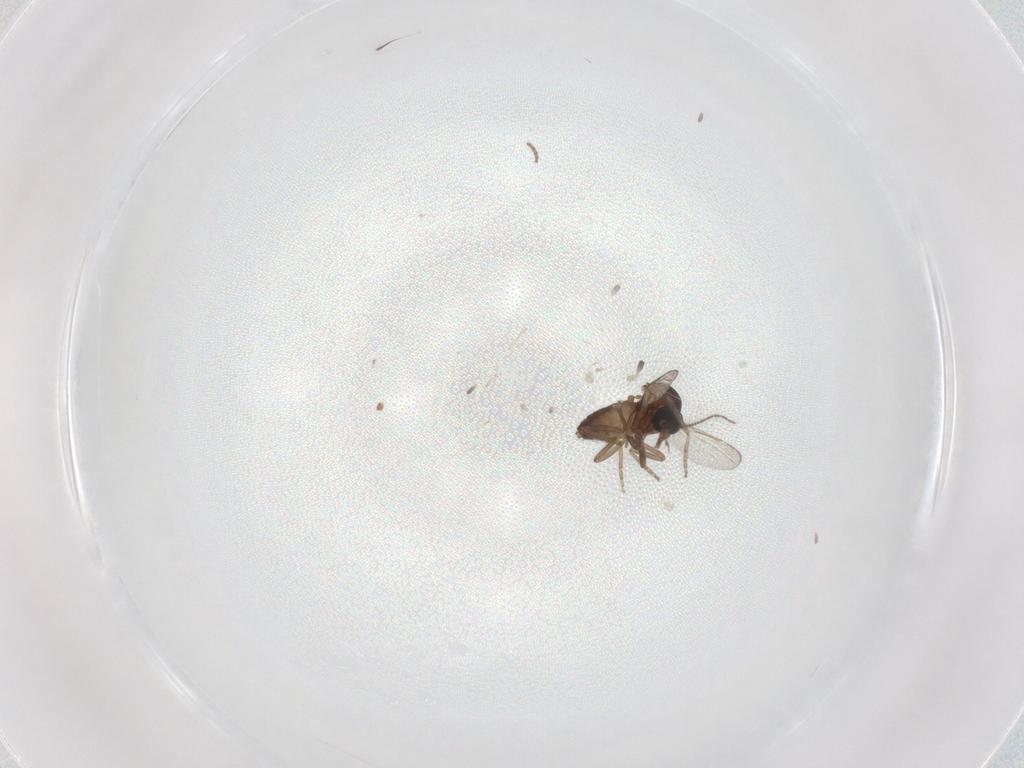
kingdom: Animalia
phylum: Arthropoda
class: Insecta
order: Diptera
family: Ceratopogonidae
